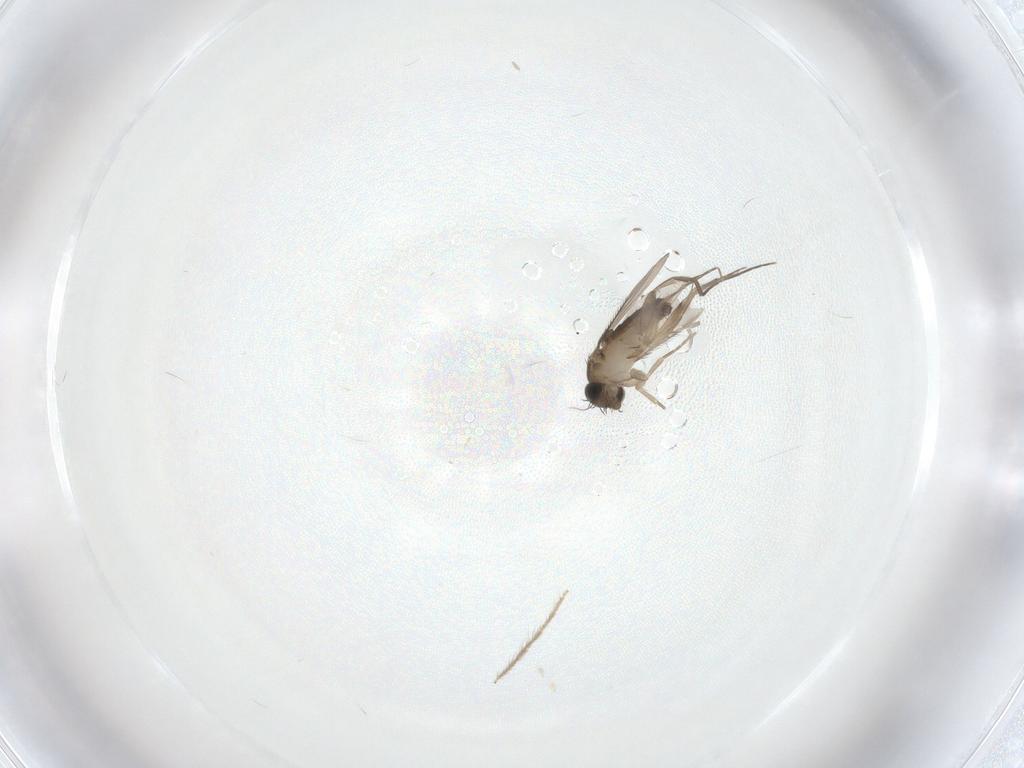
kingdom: Animalia
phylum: Arthropoda
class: Insecta
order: Diptera
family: Phoridae
